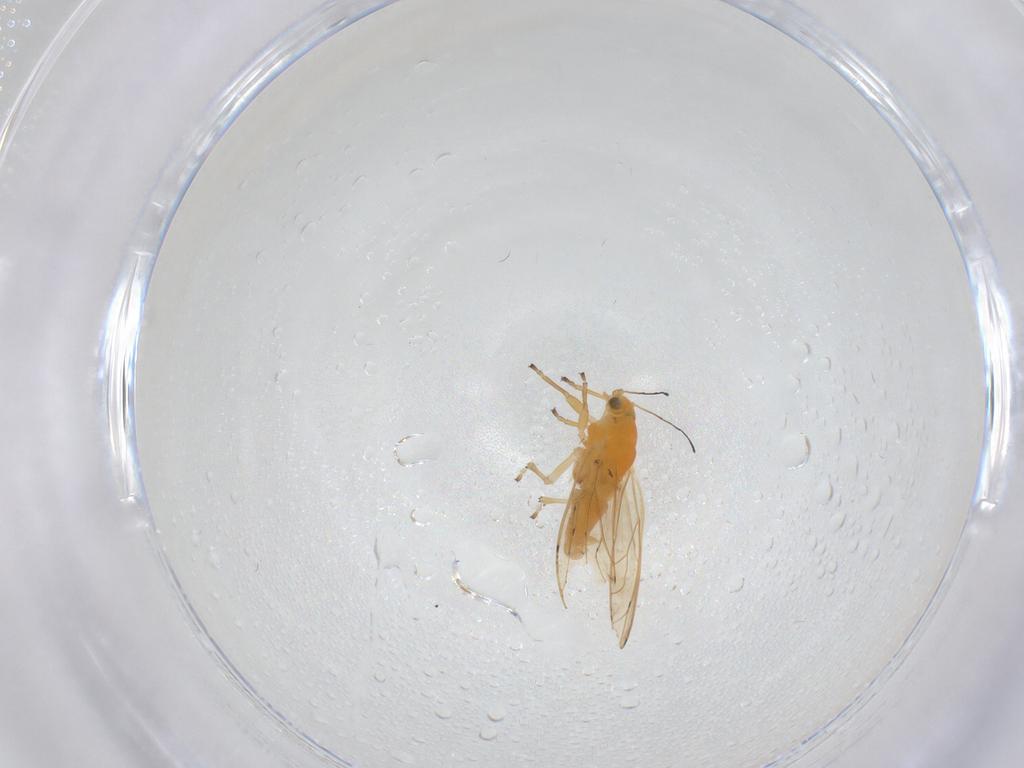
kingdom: Animalia
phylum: Arthropoda
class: Insecta
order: Hemiptera
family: Triozidae
